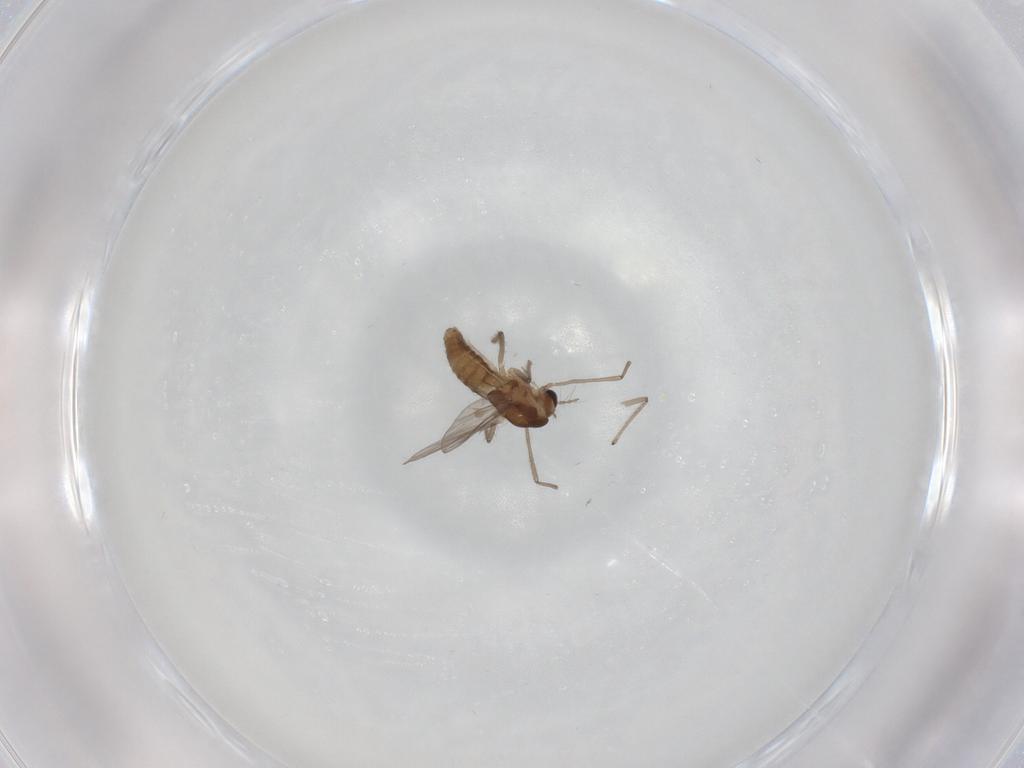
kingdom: Animalia
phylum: Arthropoda
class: Insecta
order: Diptera
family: Chironomidae
